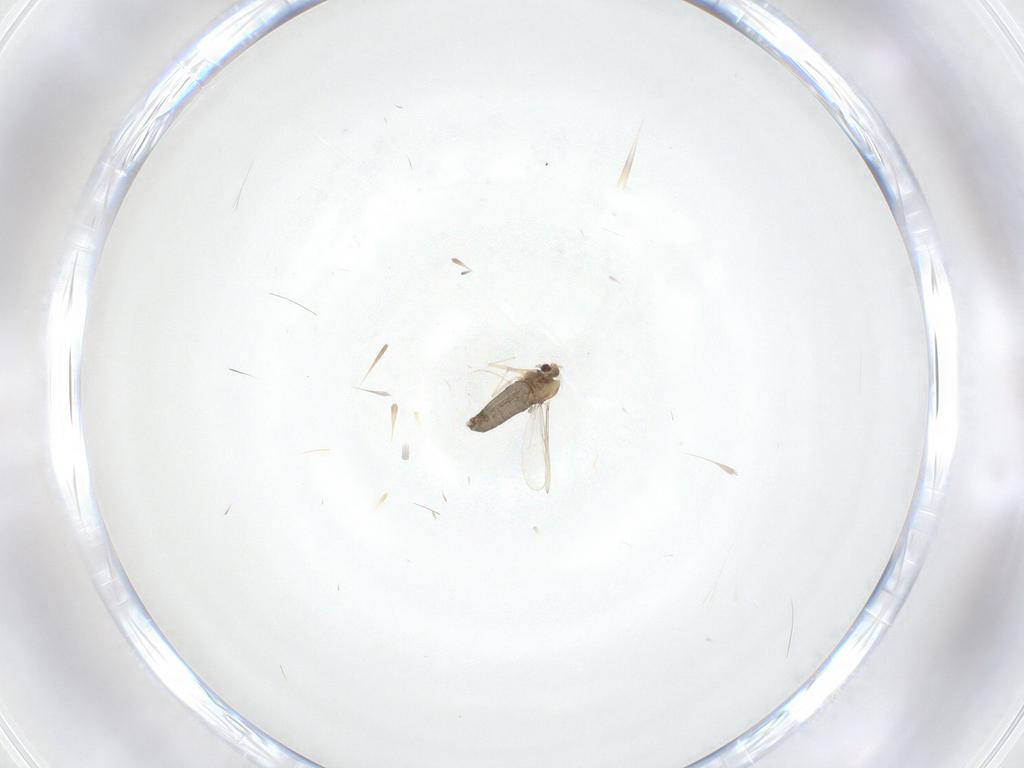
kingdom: Animalia
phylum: Arthropoda
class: Insecta
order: Diptera
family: Chironomidae
